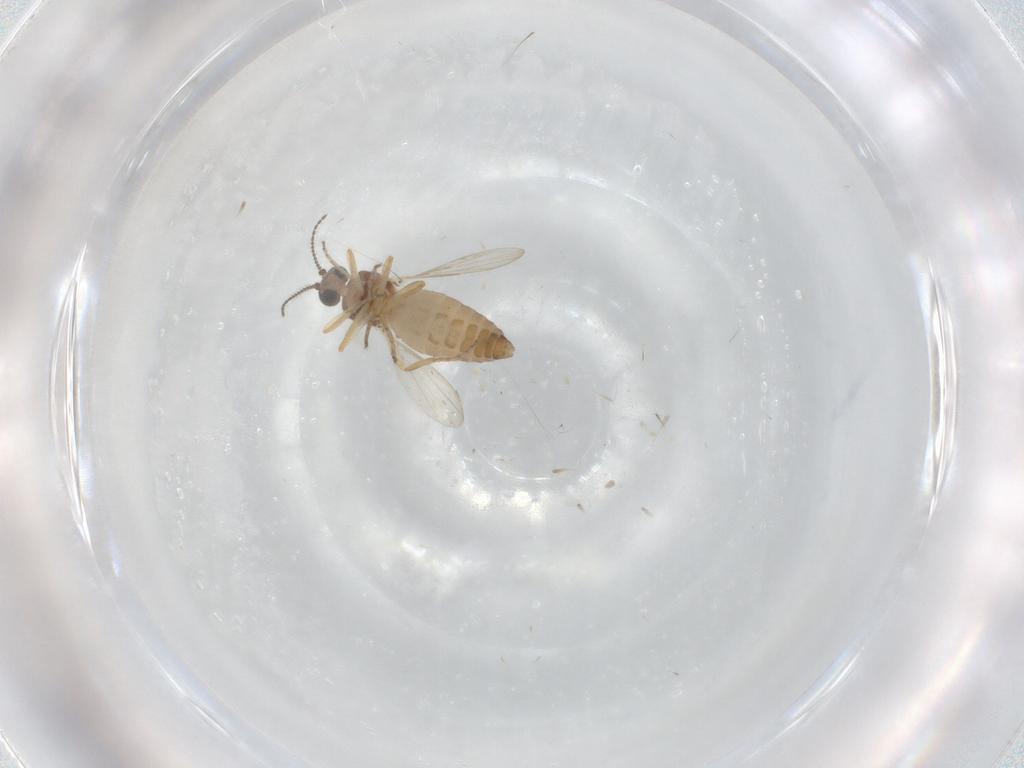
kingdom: Animalia
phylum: Arthropoda
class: Insecta
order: Diptera
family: Ceratopogonidae
